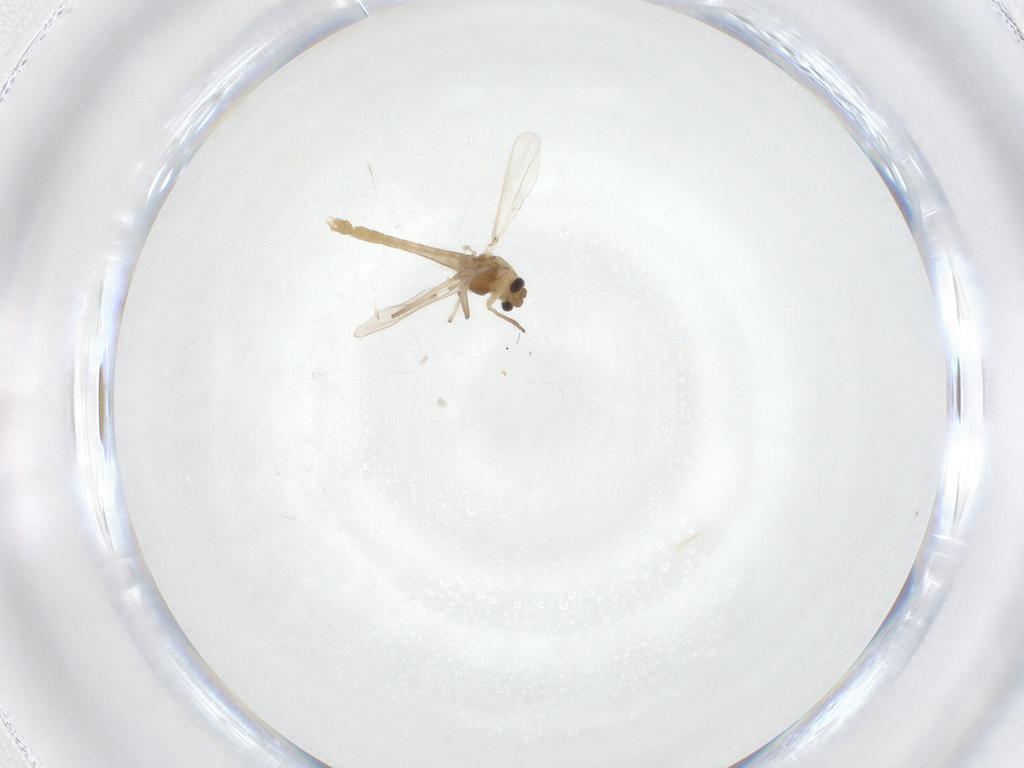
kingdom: Animalia
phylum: Arthropoda
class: Insecta
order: Diptera
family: Chironomidae
